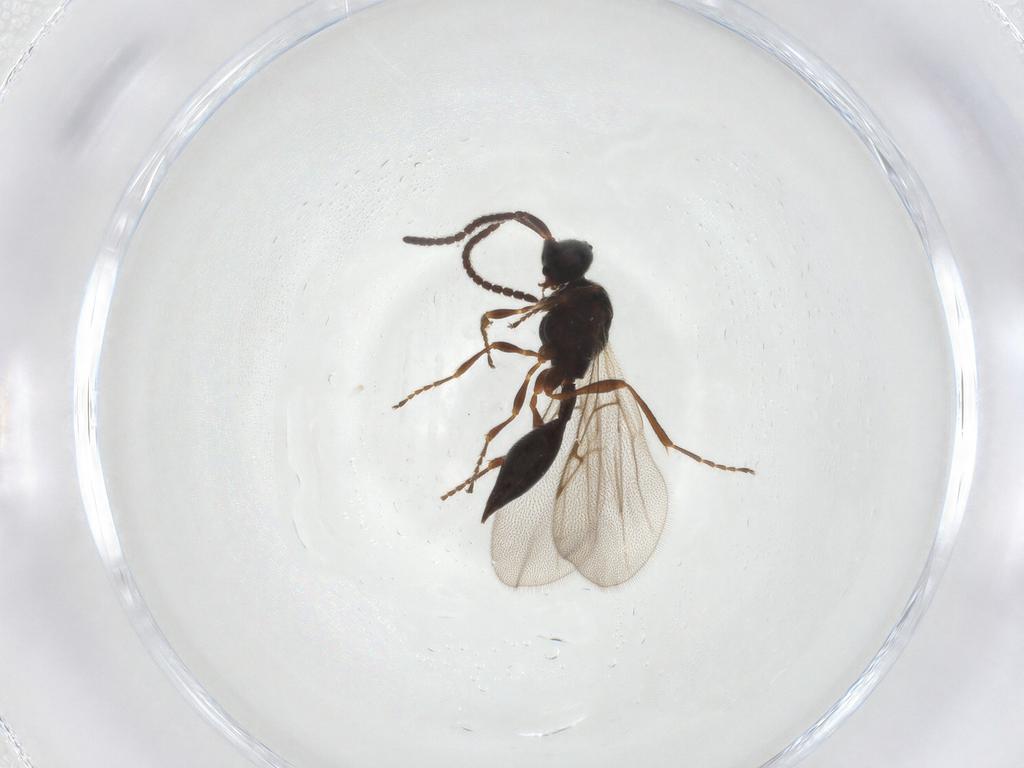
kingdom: Animalia
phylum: Arthropoda
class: Insecta
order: Hymenoptera
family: Diapriidae
